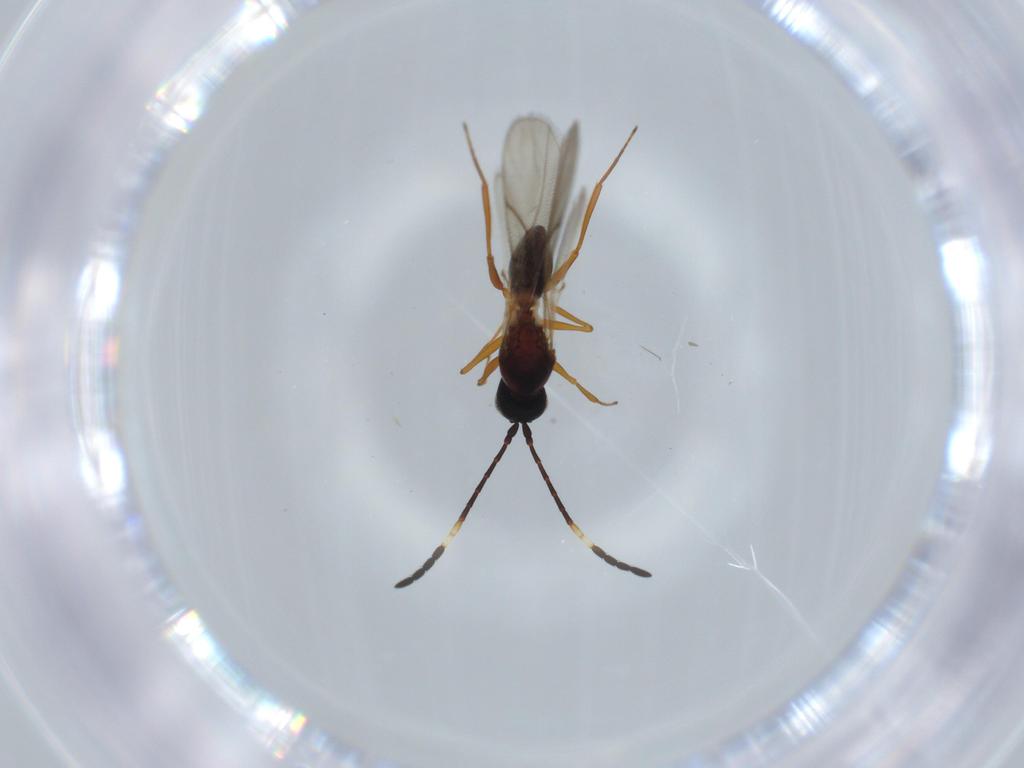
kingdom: Animalia
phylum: Arthropoda
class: Insecta
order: Hymenoptera
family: Figitidae
